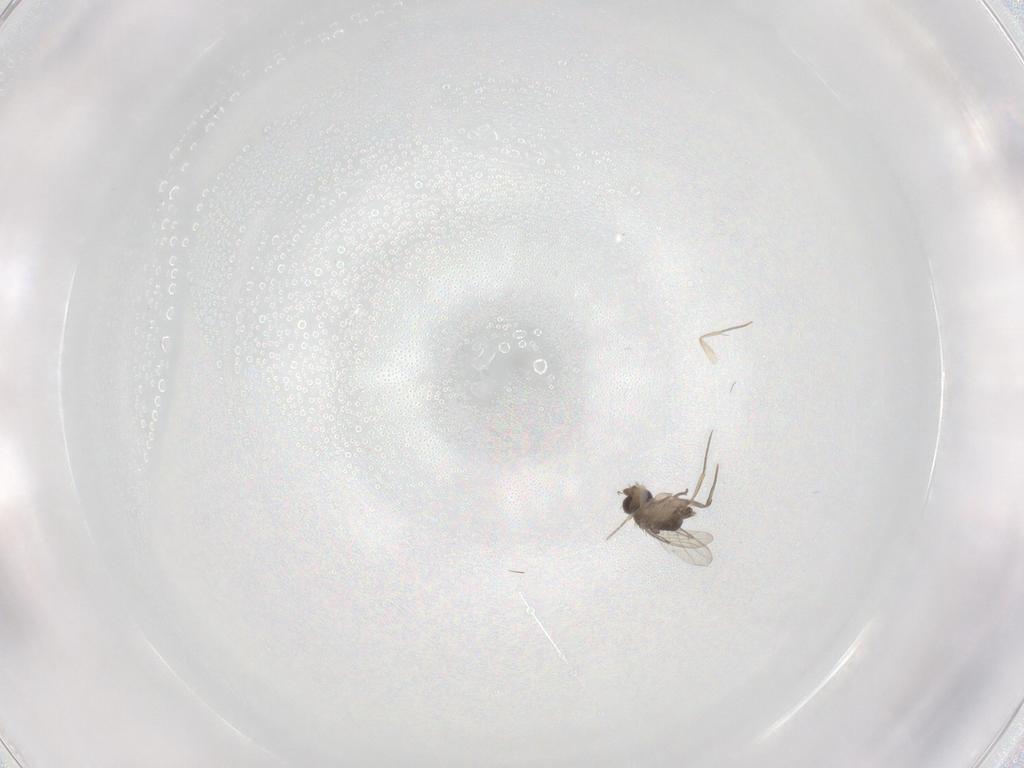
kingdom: Animalia
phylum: Arthropoda
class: Insecta
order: Diptera
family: Phoridae
